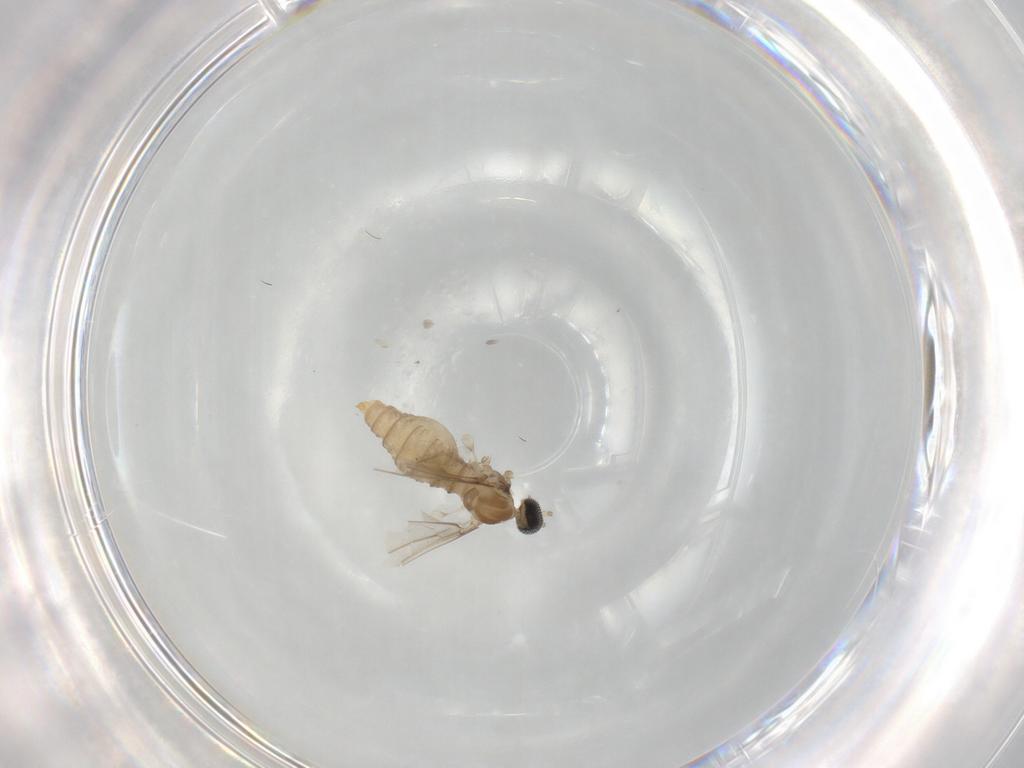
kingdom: Animalia
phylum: Arthropoda
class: Insecta
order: Diptera
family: Cecidomyiidae
